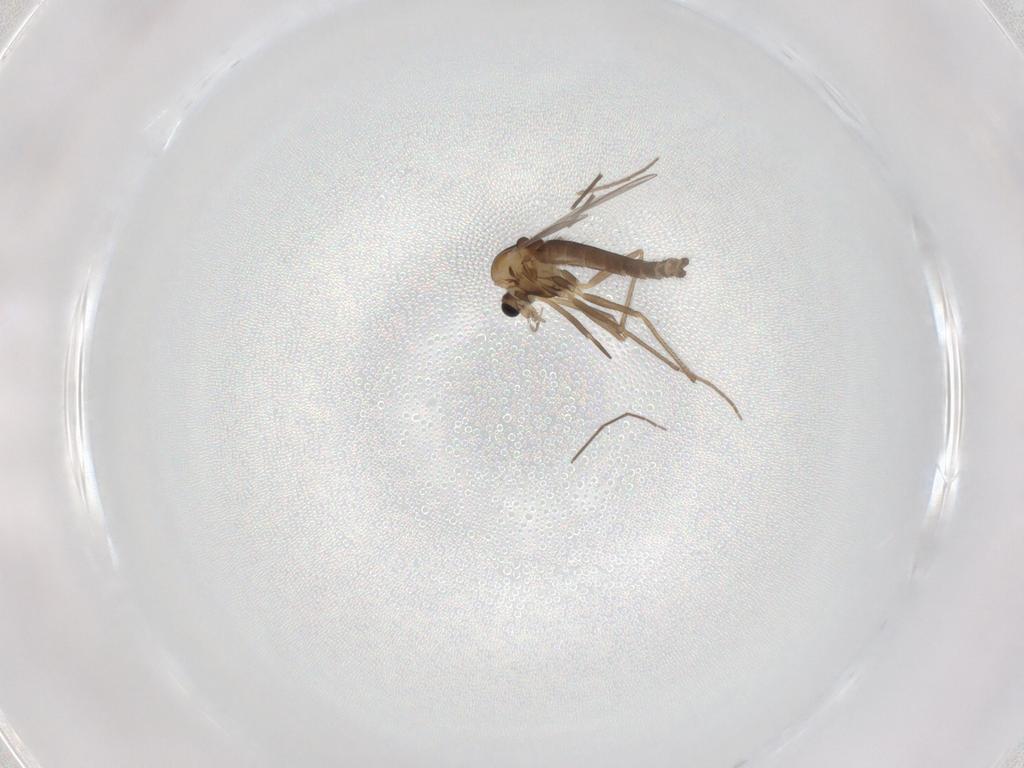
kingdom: Animalia
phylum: Arthropoda
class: Insecta
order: Diptera
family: Chironomidae
